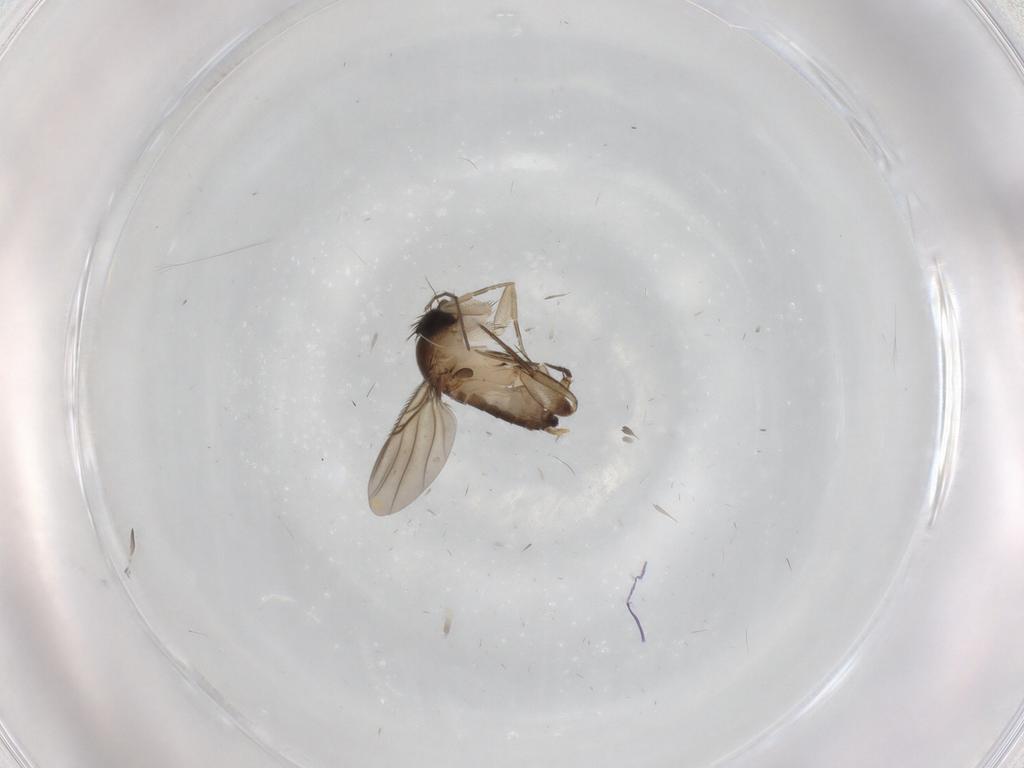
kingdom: Animalia
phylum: Arthropoda
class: Insecta
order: Diptera
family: Phoridae
